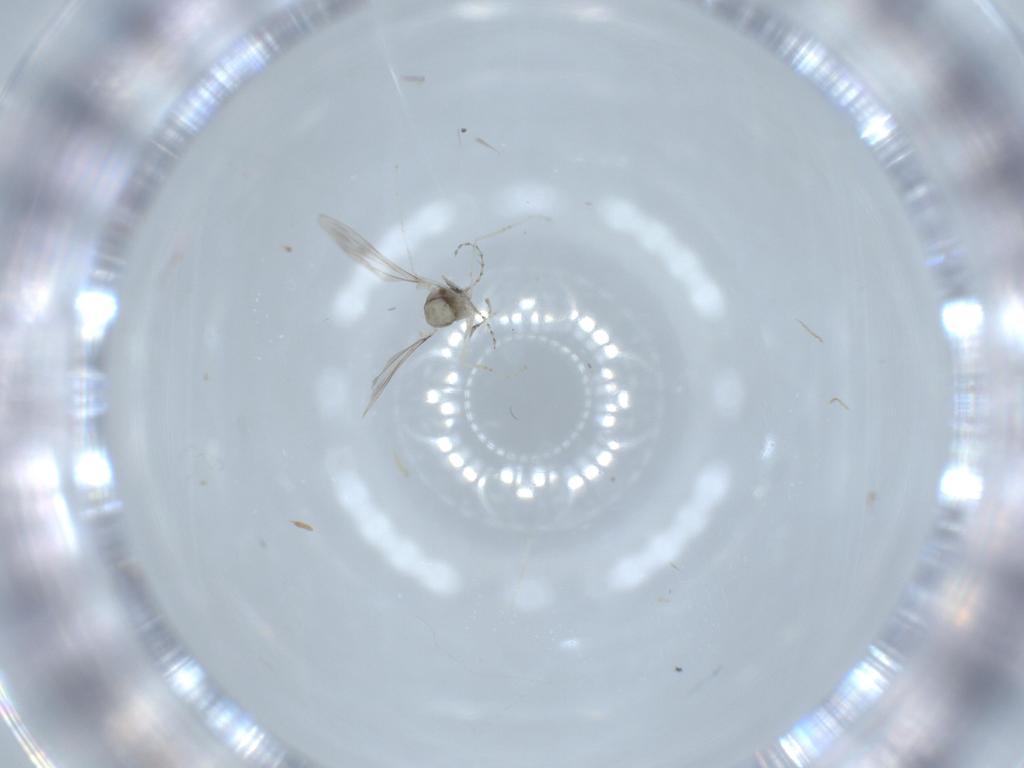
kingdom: Animalia
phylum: Arthropoda
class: Insecta
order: Diptera
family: Cecidomyiidae
